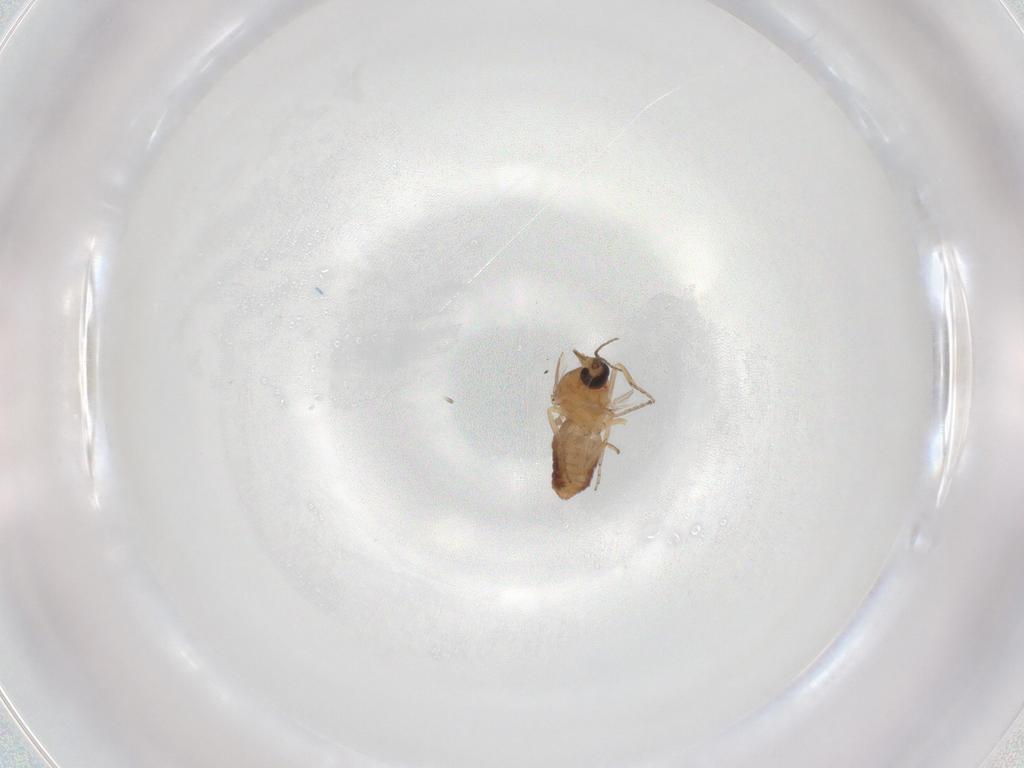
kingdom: Animalia
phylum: Arthropoda
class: Insecta
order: Diptera
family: Ceratopogonidae
